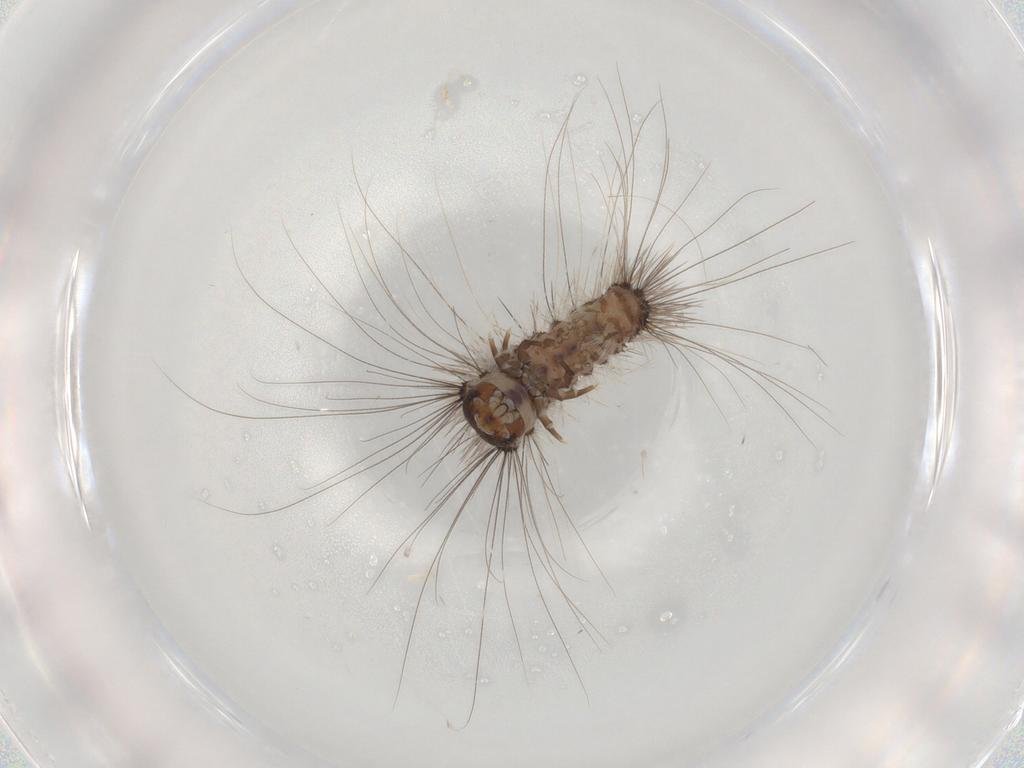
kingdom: Animalia
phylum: Arthropoda
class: Insecta
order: Lepidoptera
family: Scythrididae
